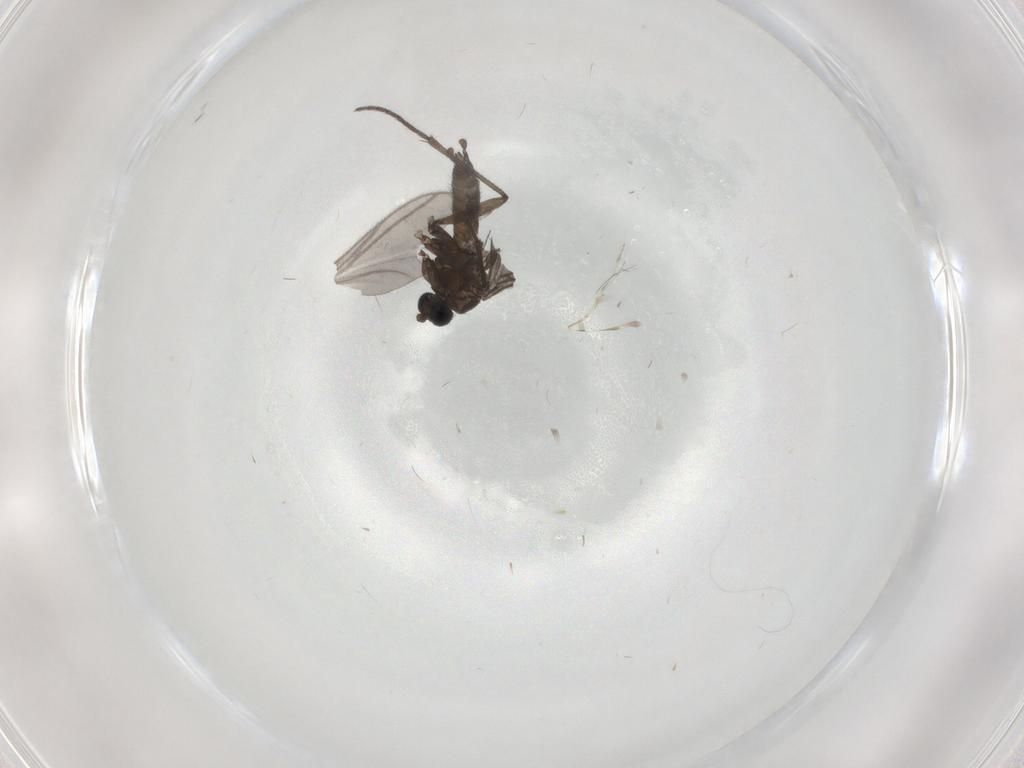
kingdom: Animalia
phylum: Arthropoda
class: Insecta
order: Diptera
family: Sciaridae
